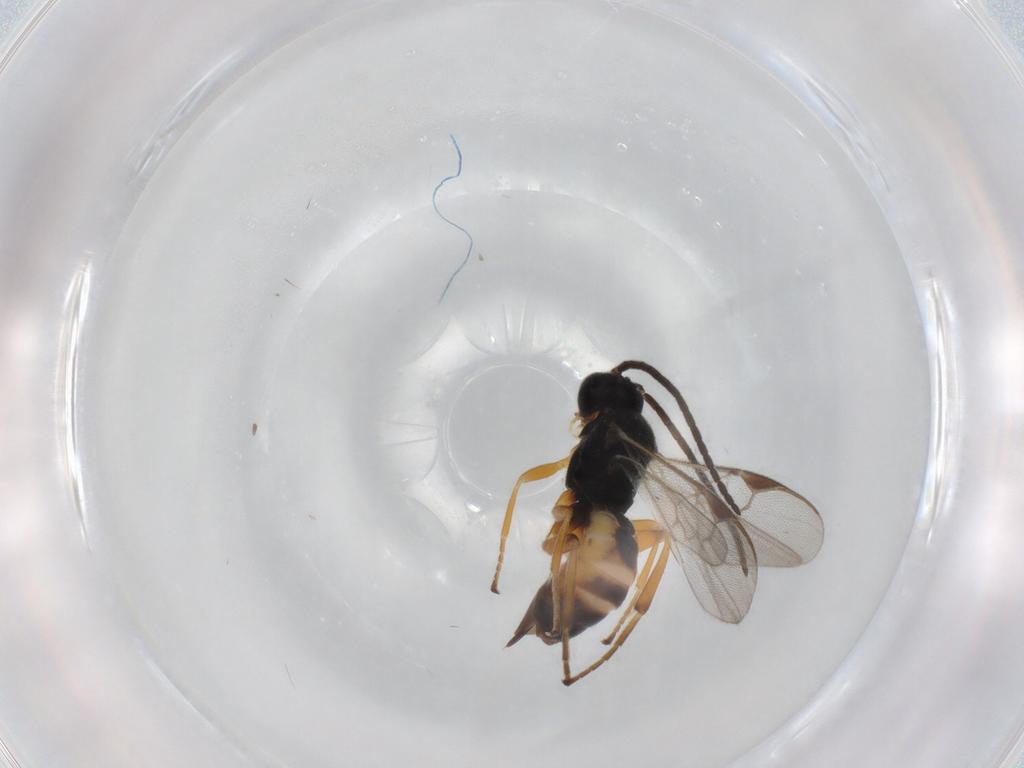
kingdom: Animalia
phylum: Arthropoda
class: Insecta
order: Hymenoptera
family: Braconidae
